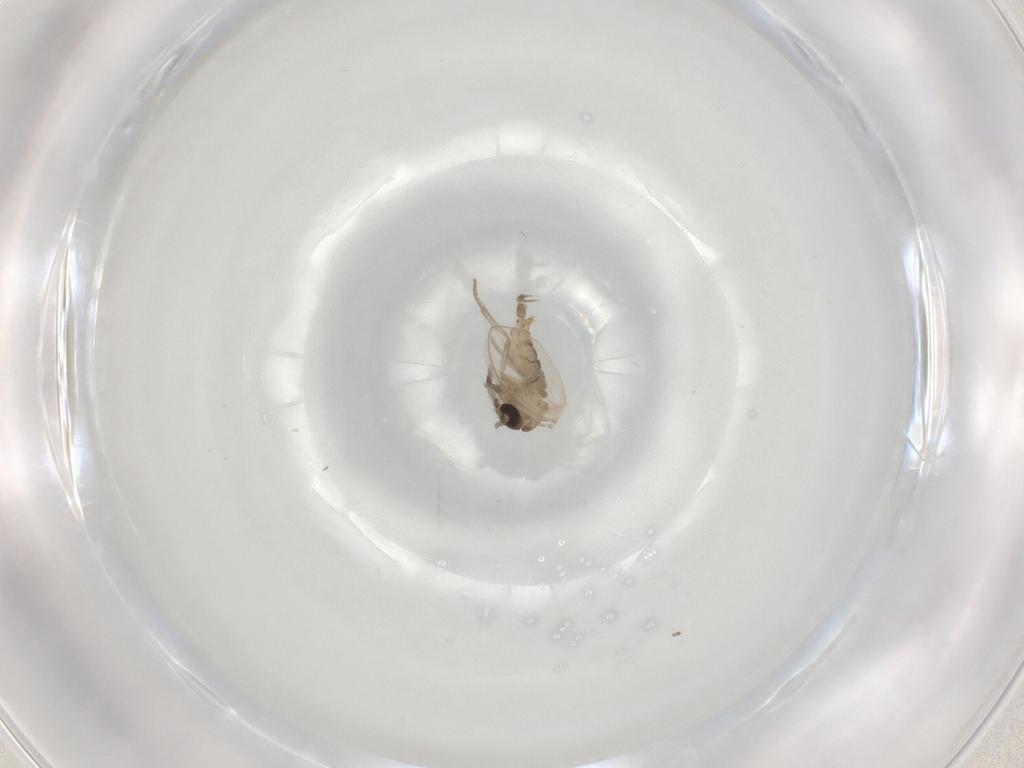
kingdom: Animalia
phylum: Arthropoda
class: Insecta
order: Diptera
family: Psychodidae
